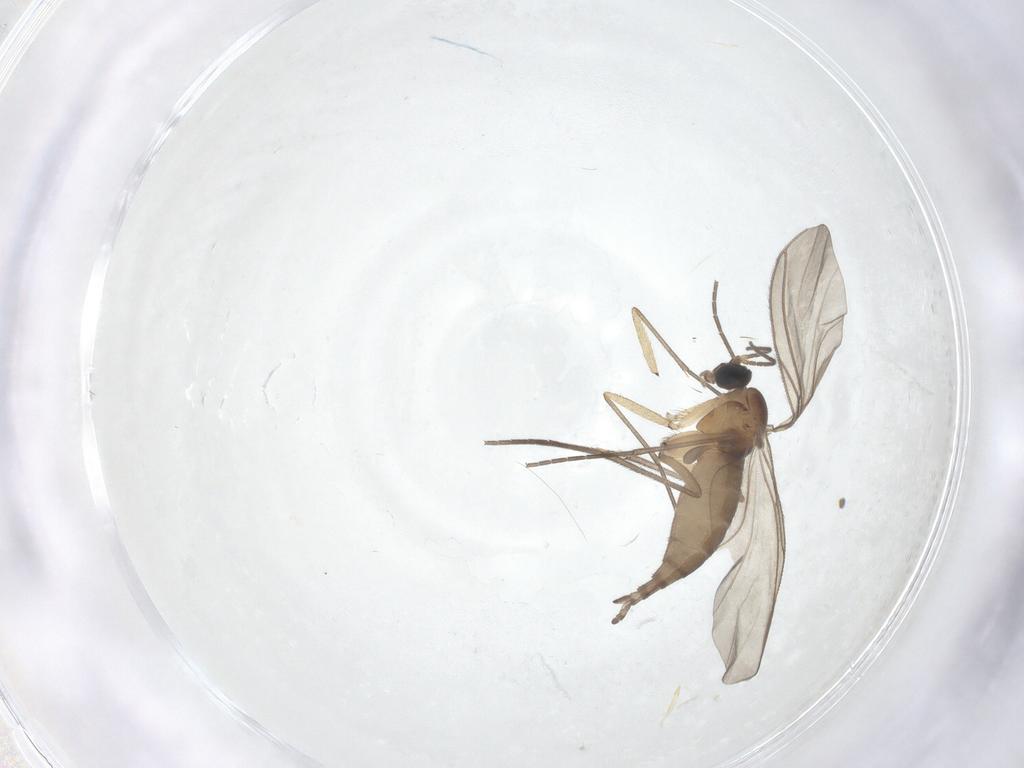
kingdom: Animalia
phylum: Arthropoda
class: Insecta
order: Diptera
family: Sciaridae
